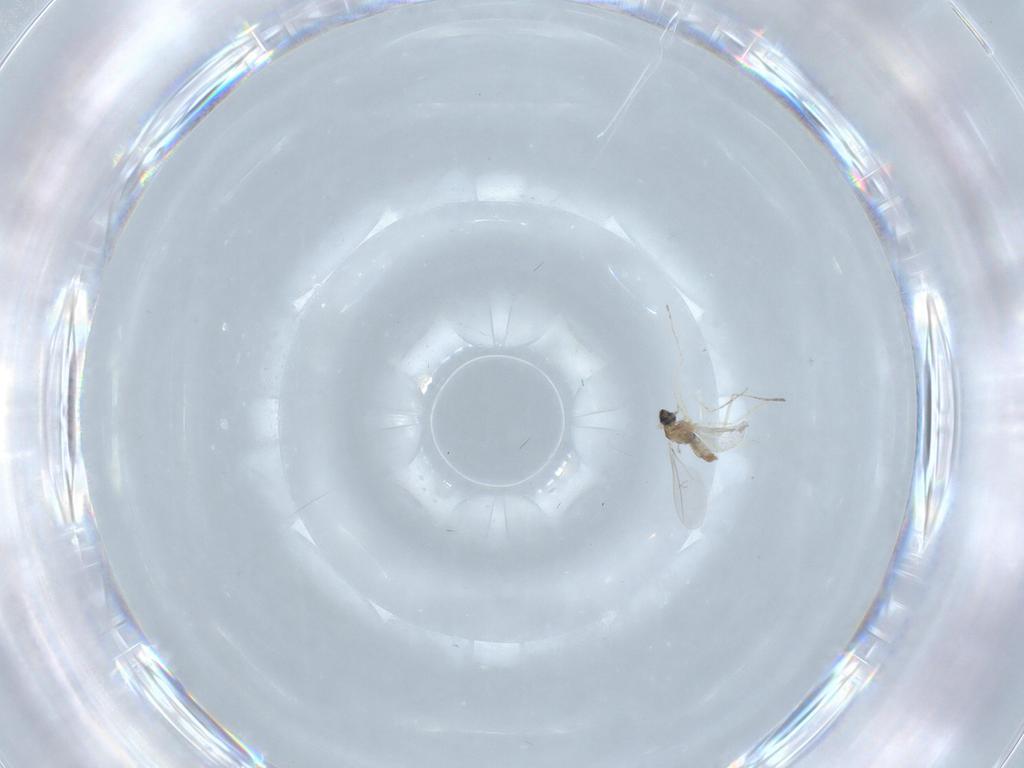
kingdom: Animalia
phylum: Arthropoda
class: Insecta
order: Diptera
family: Cecidomyiidae
